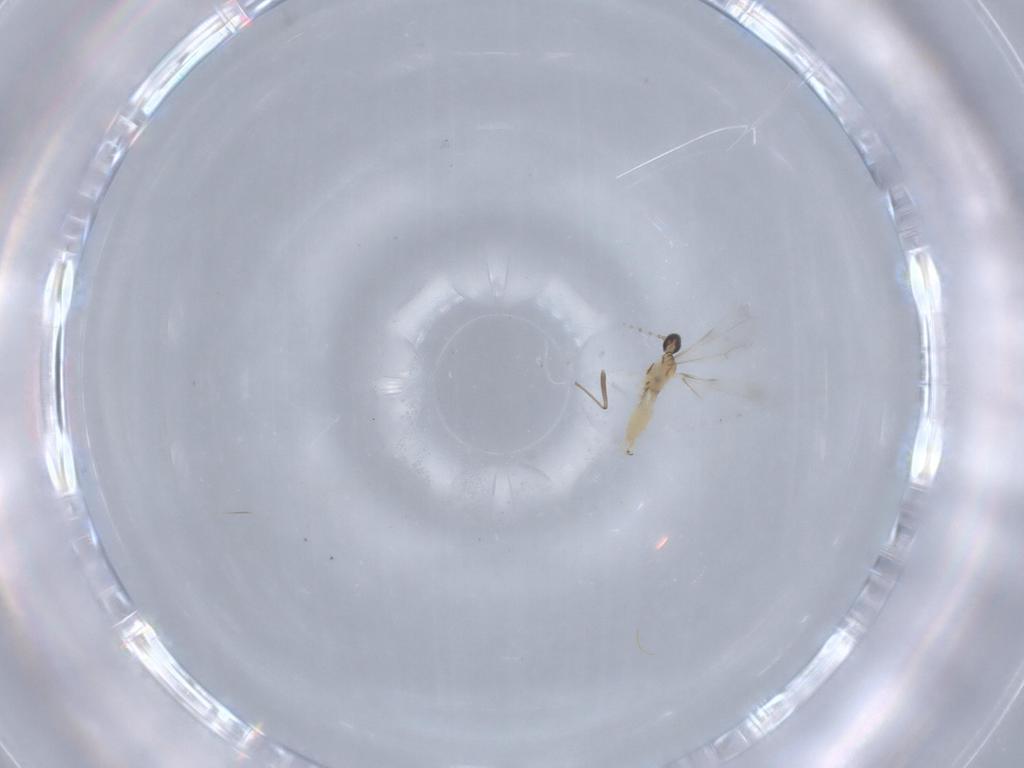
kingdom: Animalia
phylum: Arthropoda
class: Insecta
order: Diptera
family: Cecidomyiidae
